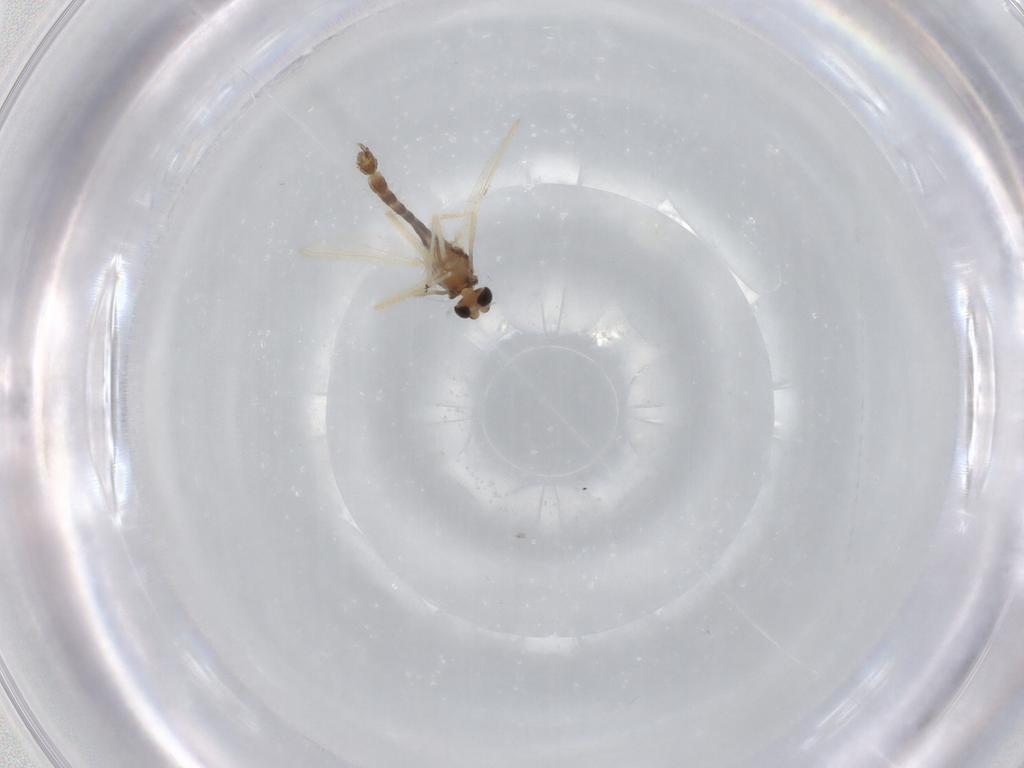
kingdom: Animalia
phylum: Arthropoda
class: Insecta
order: Diptera
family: Chironomidae
